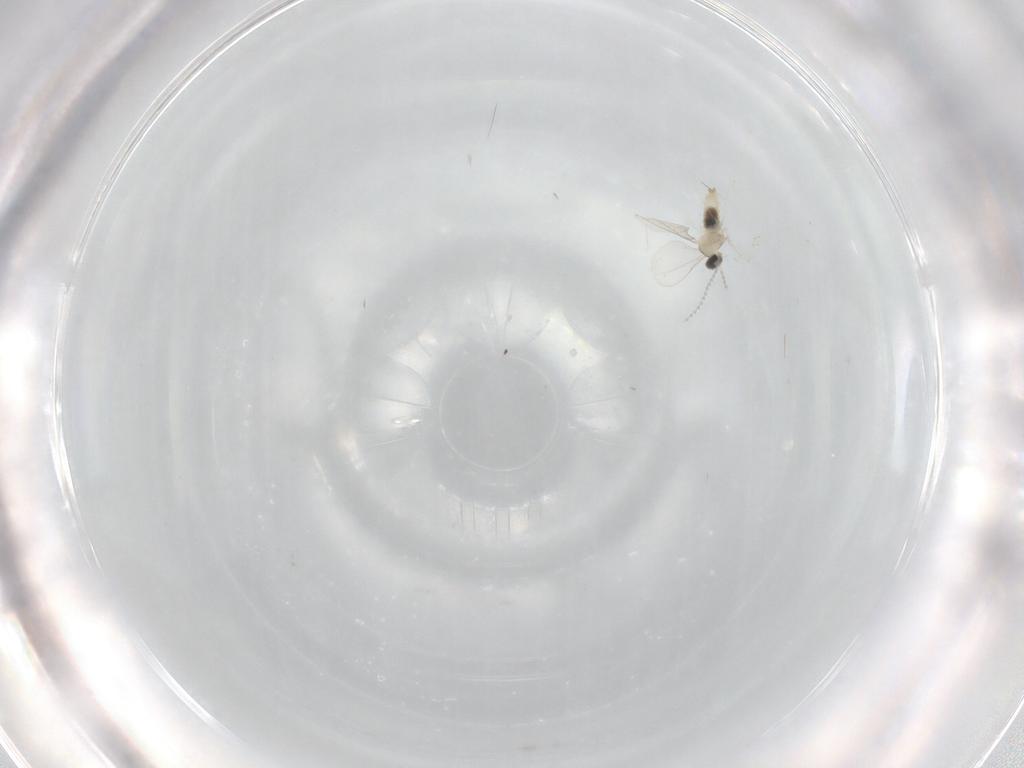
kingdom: Animalia
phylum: Arthropoda
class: Insecta
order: Diptera
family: Cecidomyiidae
